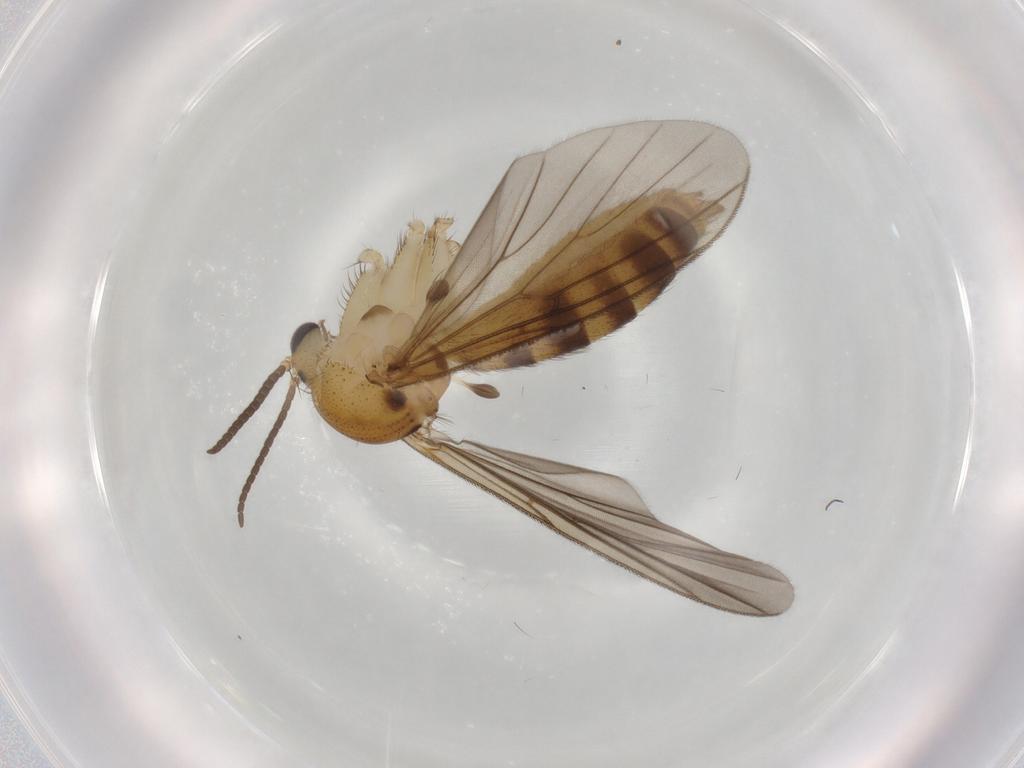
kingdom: Animalia
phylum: Arthropoda
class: Insecta
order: Diptera
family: Mycetophilidae
